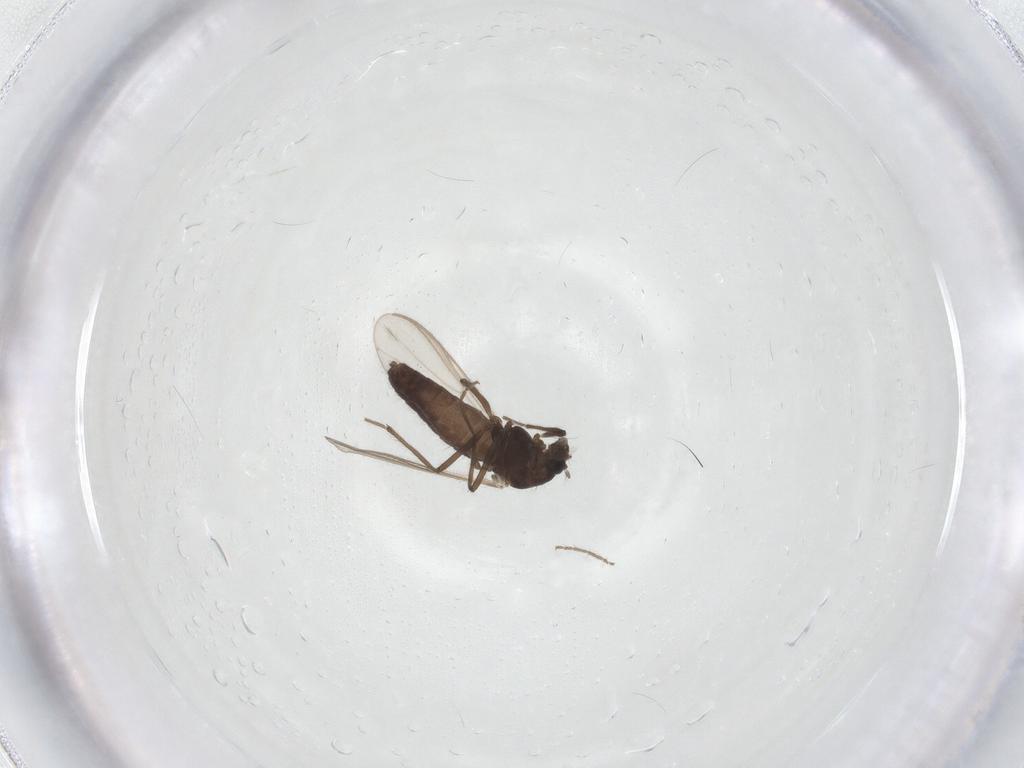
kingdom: Animalia
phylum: Arthropoda
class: Insecta
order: Diptera
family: Chironomidae
